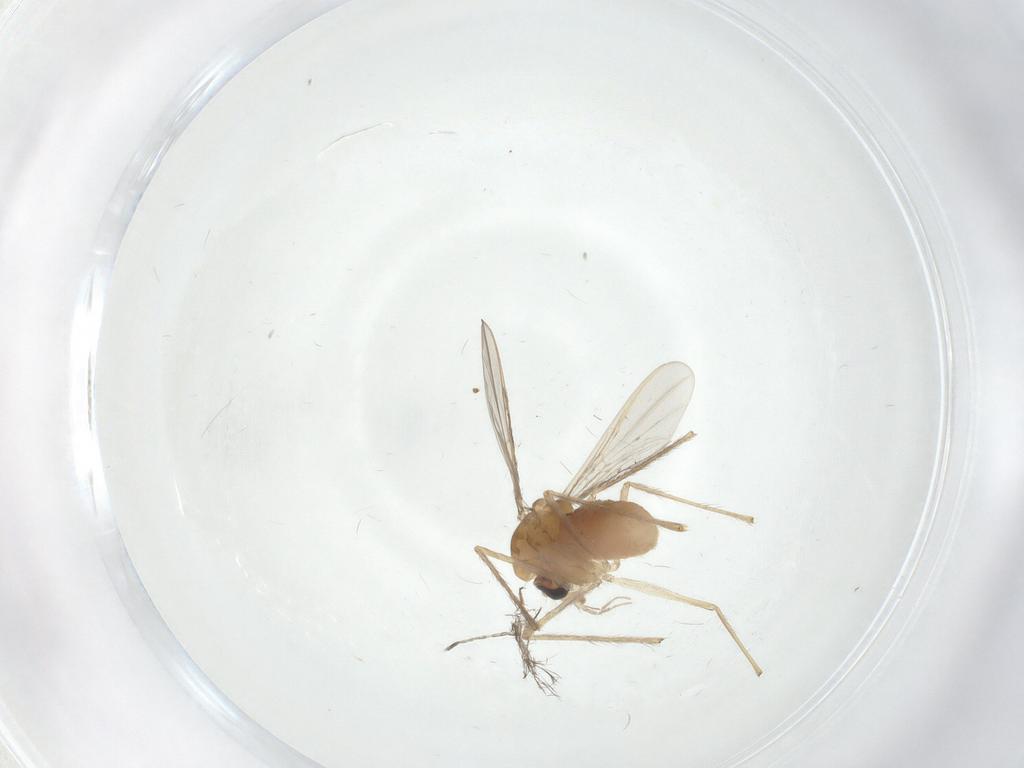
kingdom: Animalia
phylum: Arthropoda
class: Insecta
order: Diptera
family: Chironomidae
